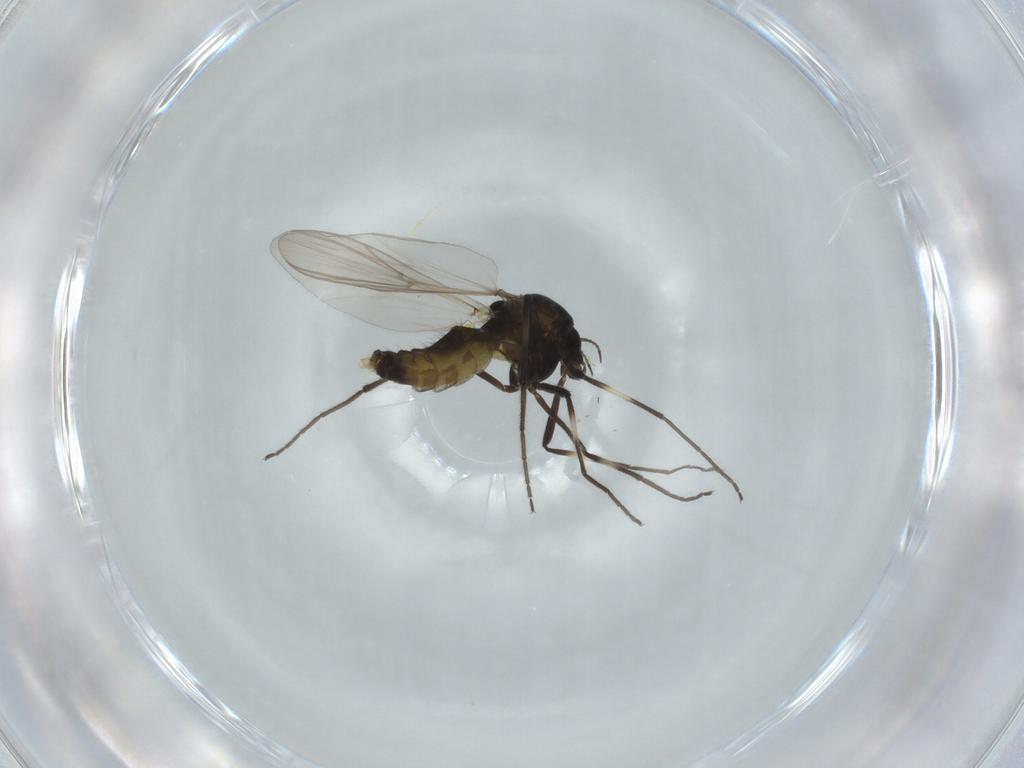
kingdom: Animalia
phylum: Arthropoda
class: Insecta
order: Diptera
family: Chironomidae
